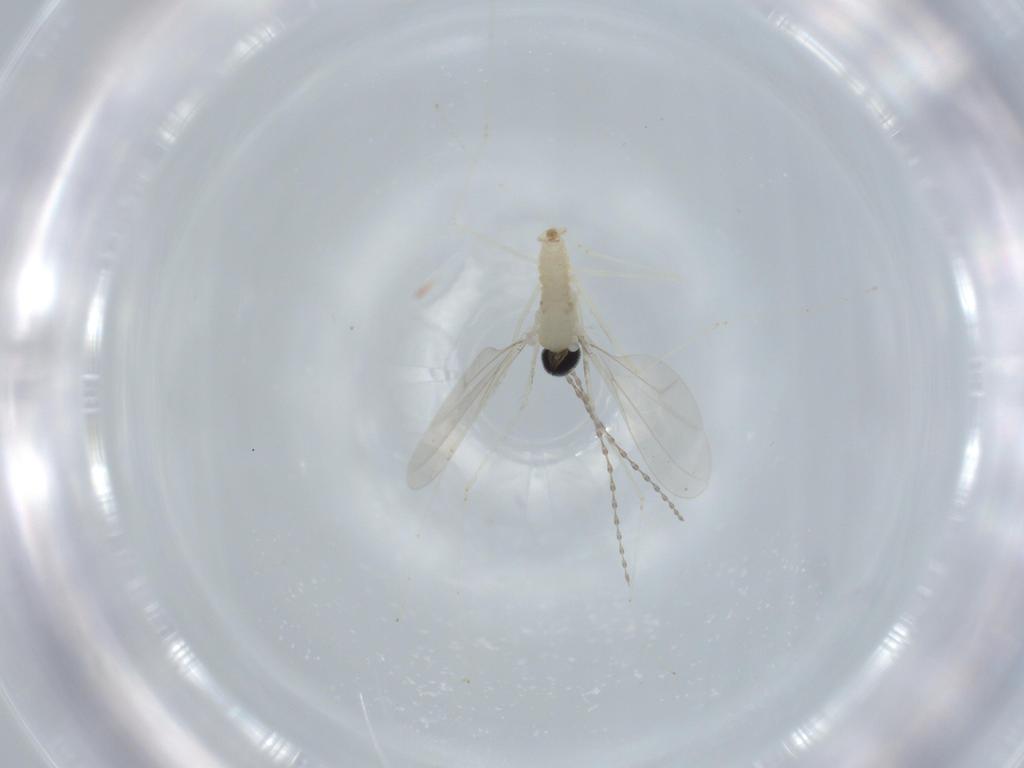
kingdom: Animalia
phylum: Arthropoda
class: Insecta
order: Diptera
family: Cecidomyiidae
